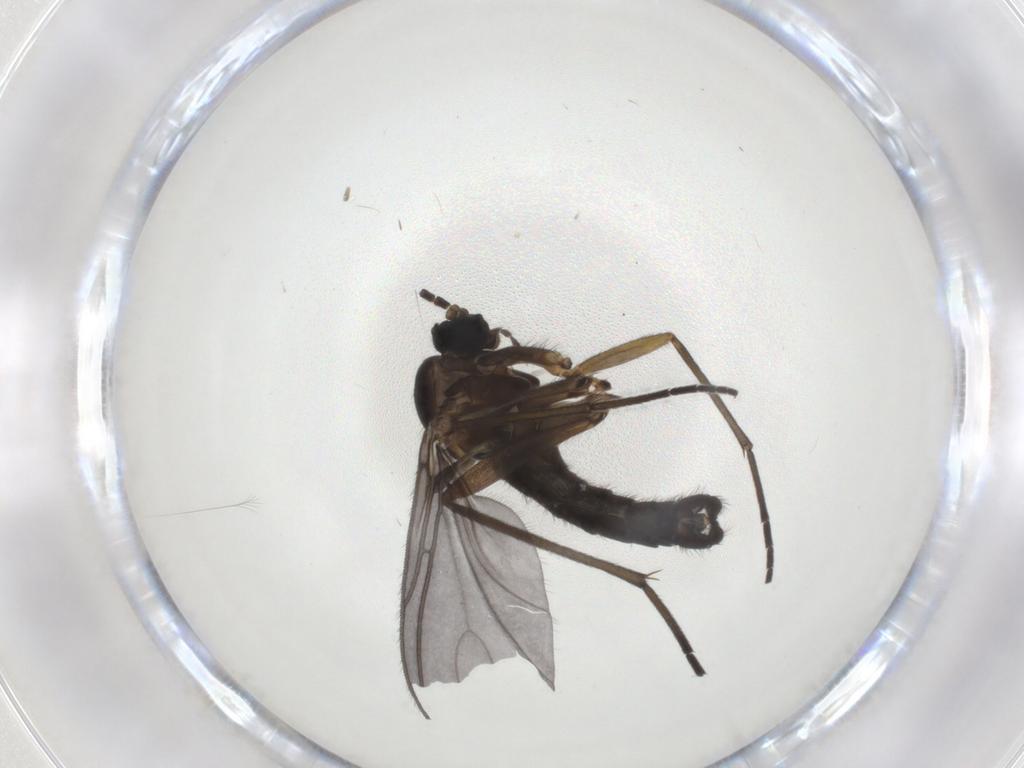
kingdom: Animalia
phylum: Arthropoda
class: Insecta
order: Diptera
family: Sciaridae
